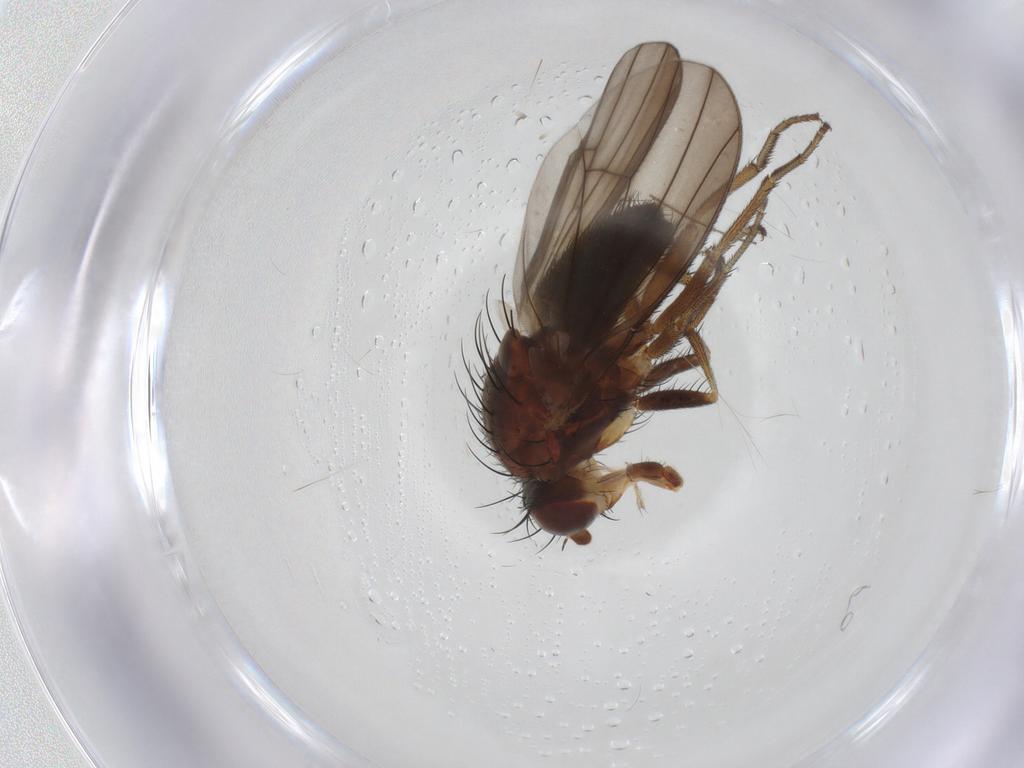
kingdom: Animalia
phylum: Arthropoda
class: Insecta
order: Diptera
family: Heleomyzidae
